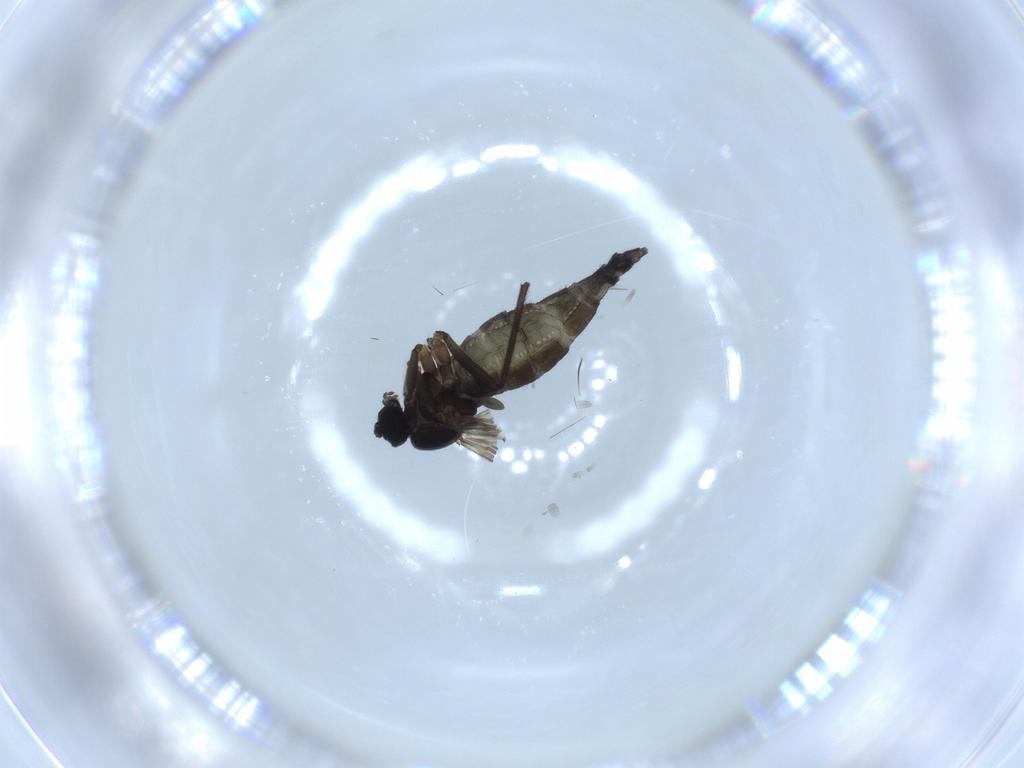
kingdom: Animalia
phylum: Arthropoda
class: Insecta
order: Diptera
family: Sciaridae
